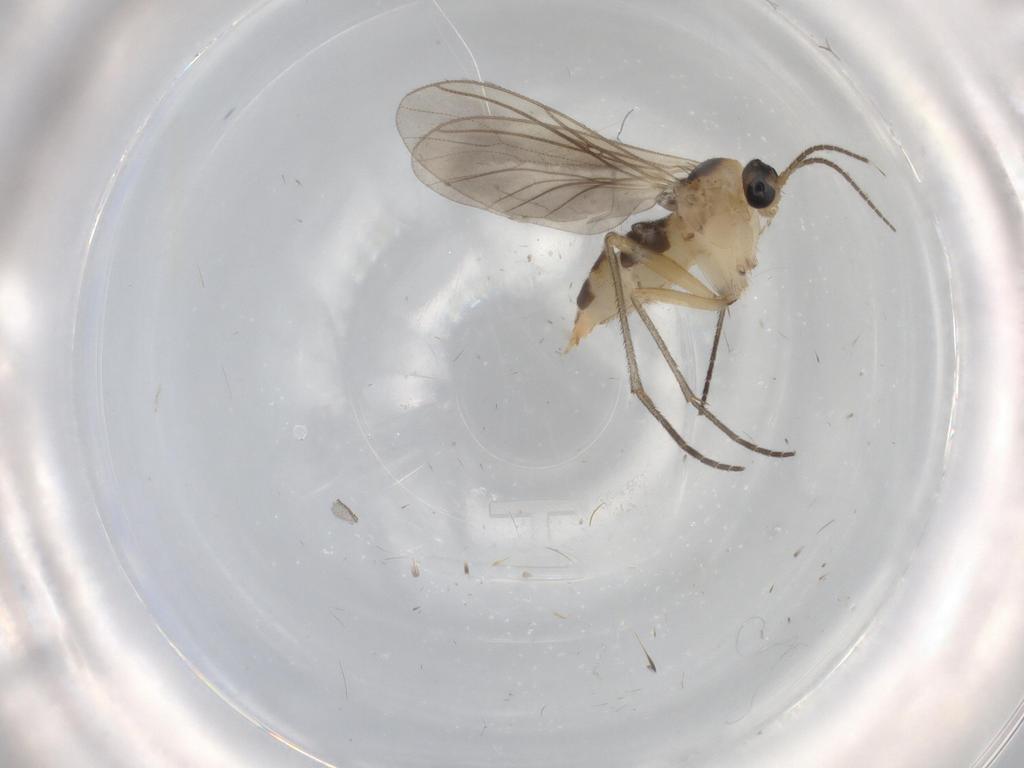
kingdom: Animalia
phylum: Arthropoda
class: Insecta
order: Diptera
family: Sciaridae
